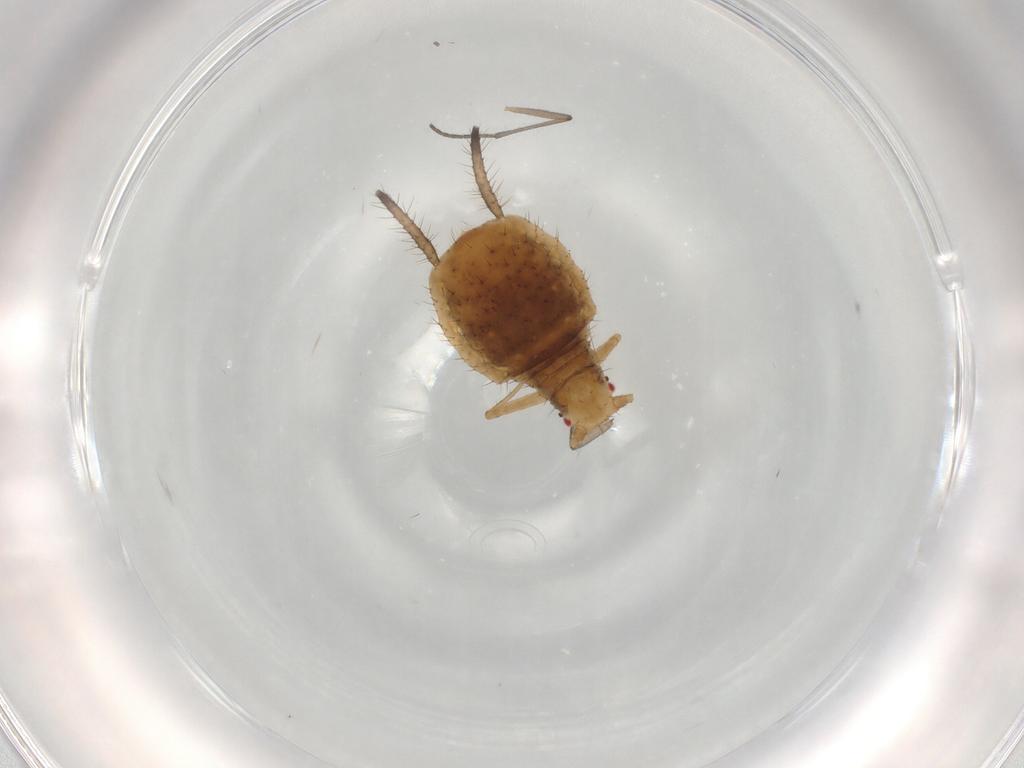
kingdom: Animalia
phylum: Arthropoda
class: Insecta
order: Hemiptera
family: Aphididae
